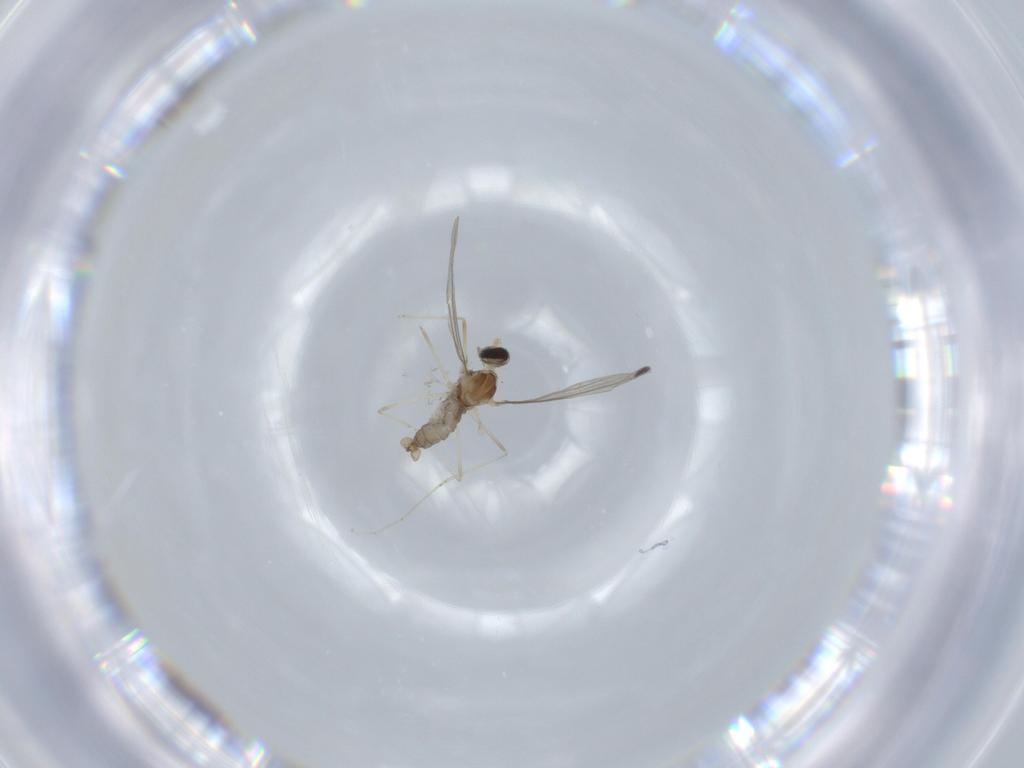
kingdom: Animalia
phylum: Arthropoda
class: Insecta
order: Diptera
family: Cecidomyiidae
